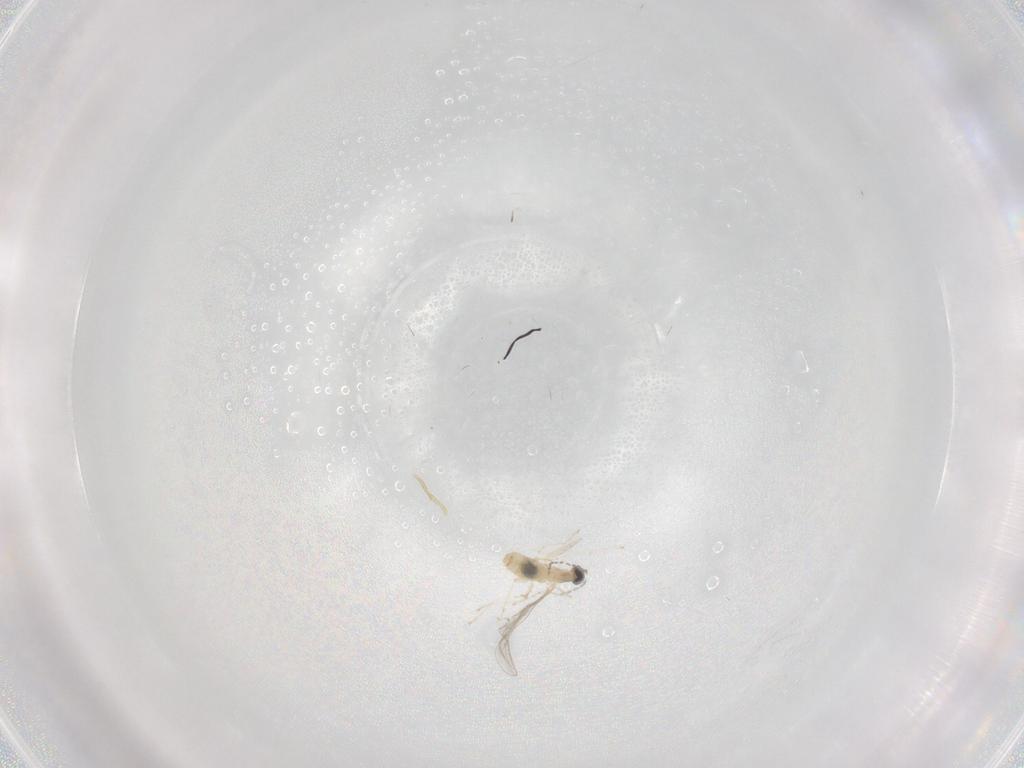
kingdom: Animalia
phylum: Arthropoda
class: Insecta
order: Diptera
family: Cecidomyiidae
